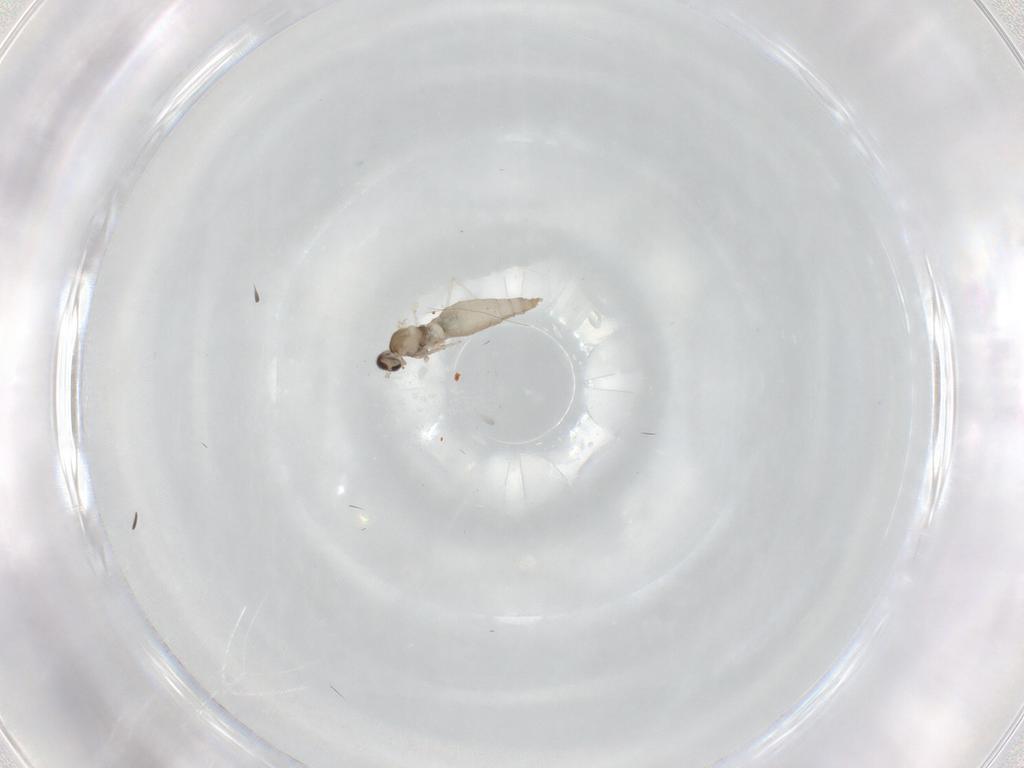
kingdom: Animalia
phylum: Arthropoda
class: Insecta
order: Diptera
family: Cecidomyiidae
